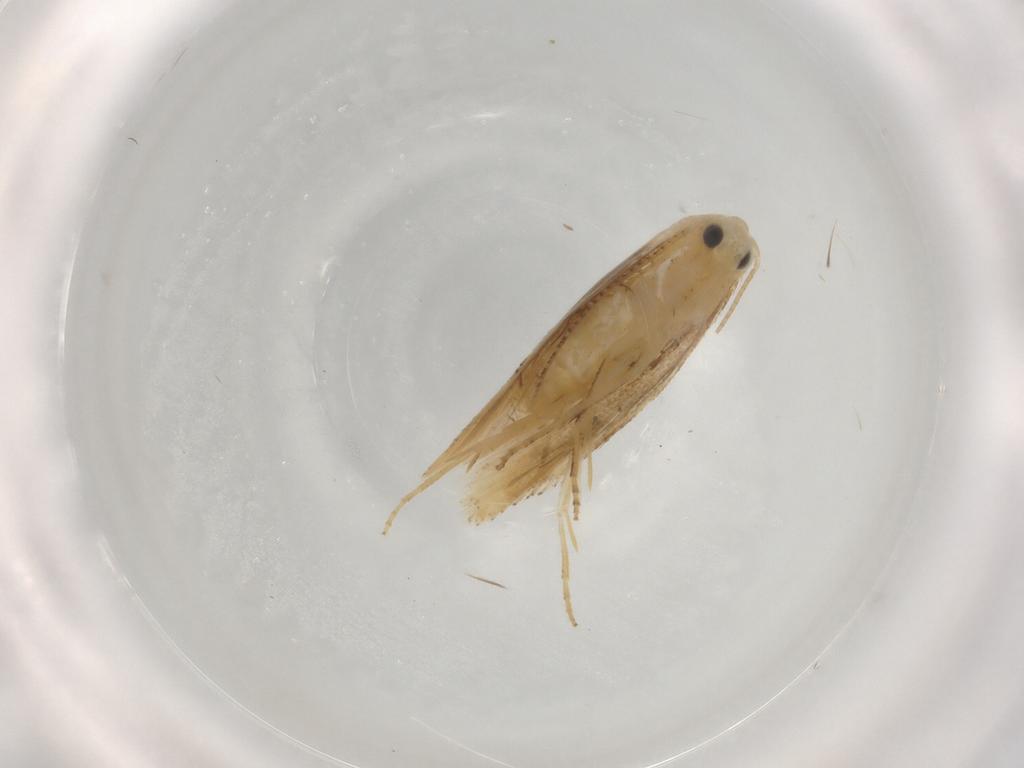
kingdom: Animalia
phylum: Arthropoda
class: Insecta
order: Lepidoptera
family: Bucculatricidae
